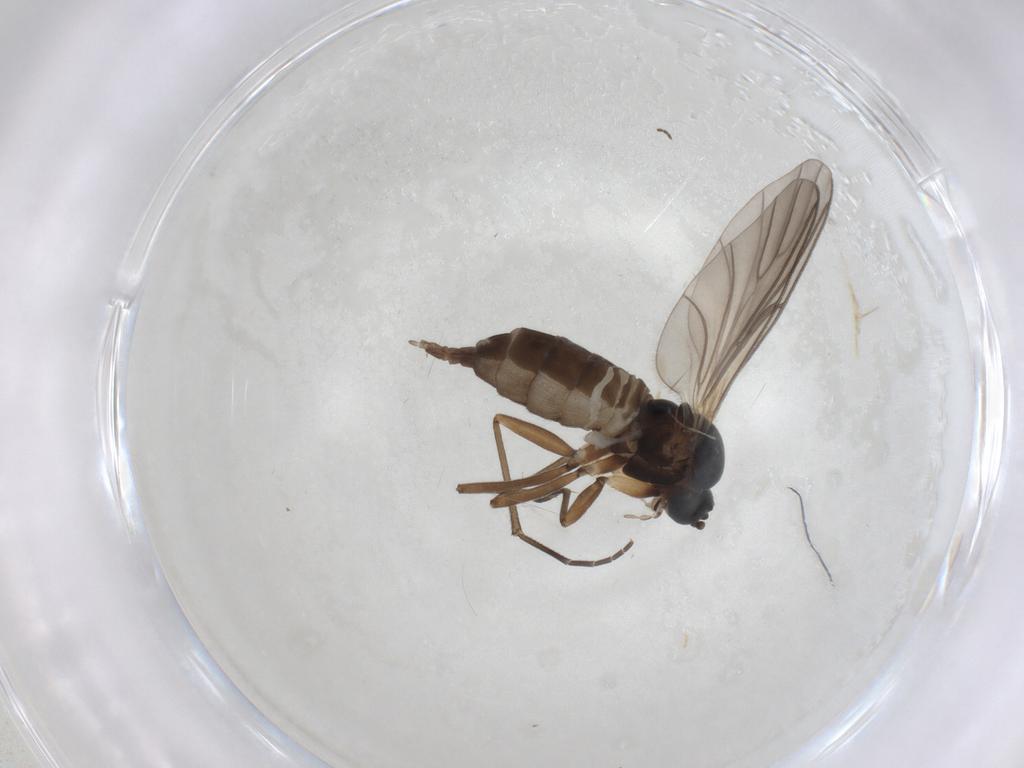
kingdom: Animalia
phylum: Arthropoda
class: Insecta
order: Diptera
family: Sciaridae
